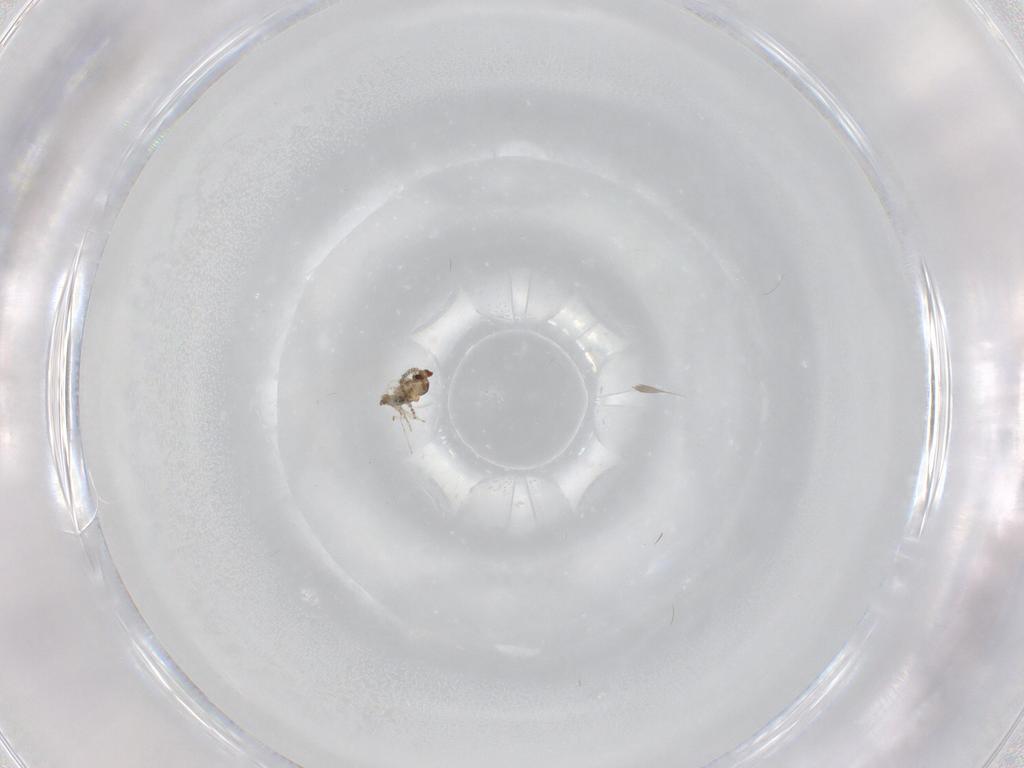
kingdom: Animalia
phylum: Arthropoda
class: Insecta
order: Diptera
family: Cecidomyiidae
